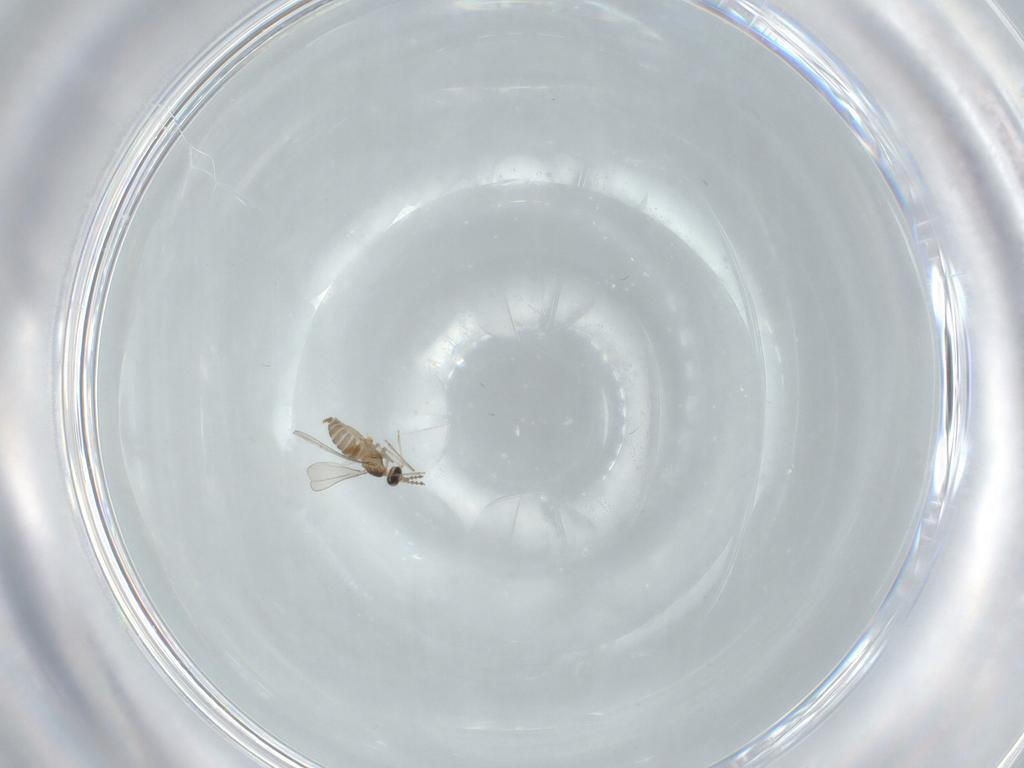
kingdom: Animalia
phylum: Arthropoda
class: Insecta
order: Diptera
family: Cecidomyiidae
